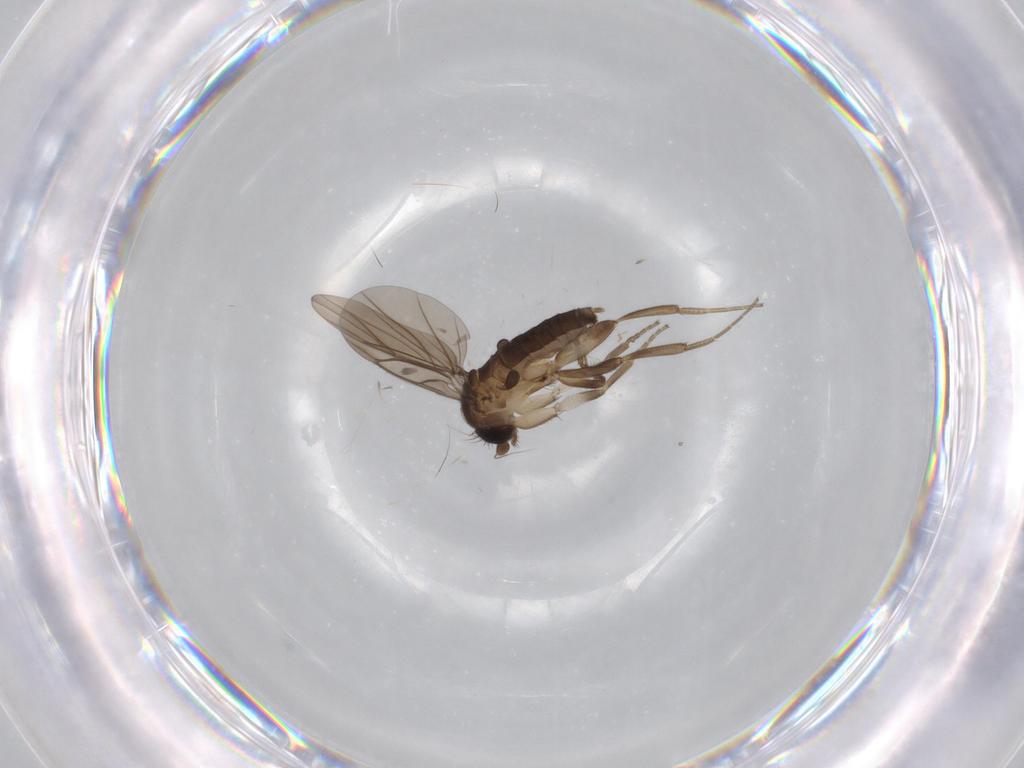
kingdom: Animalia
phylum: Arthropoda
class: Insecta
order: Diptera
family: Cecidomyiidae
